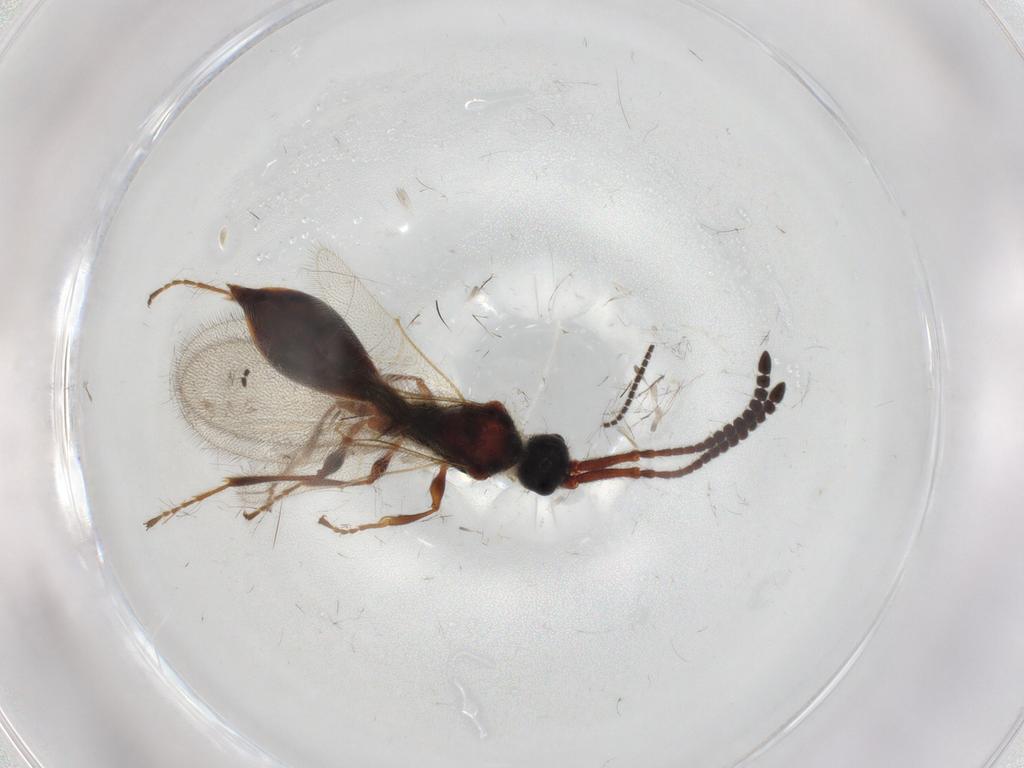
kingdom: Animalia
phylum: Arthropoda
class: Insecta
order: Hymenoptera
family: Diapriidae
